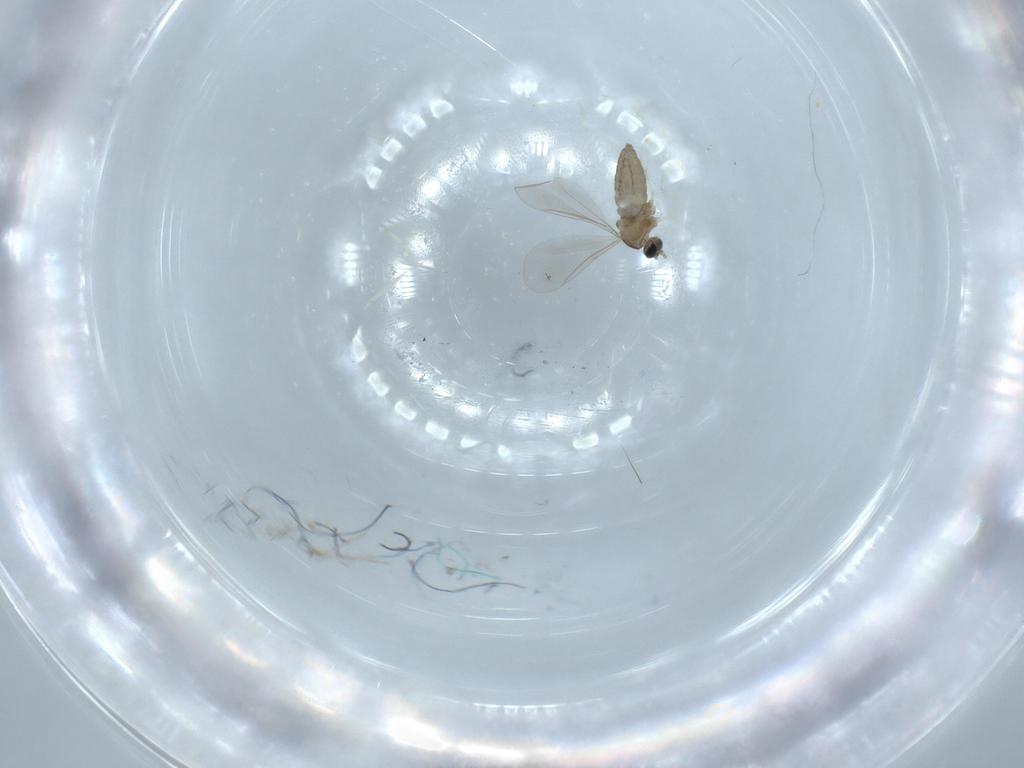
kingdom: Animalia
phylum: Arthropoda
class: Insecta
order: Diptera
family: Cecidomyiidae
